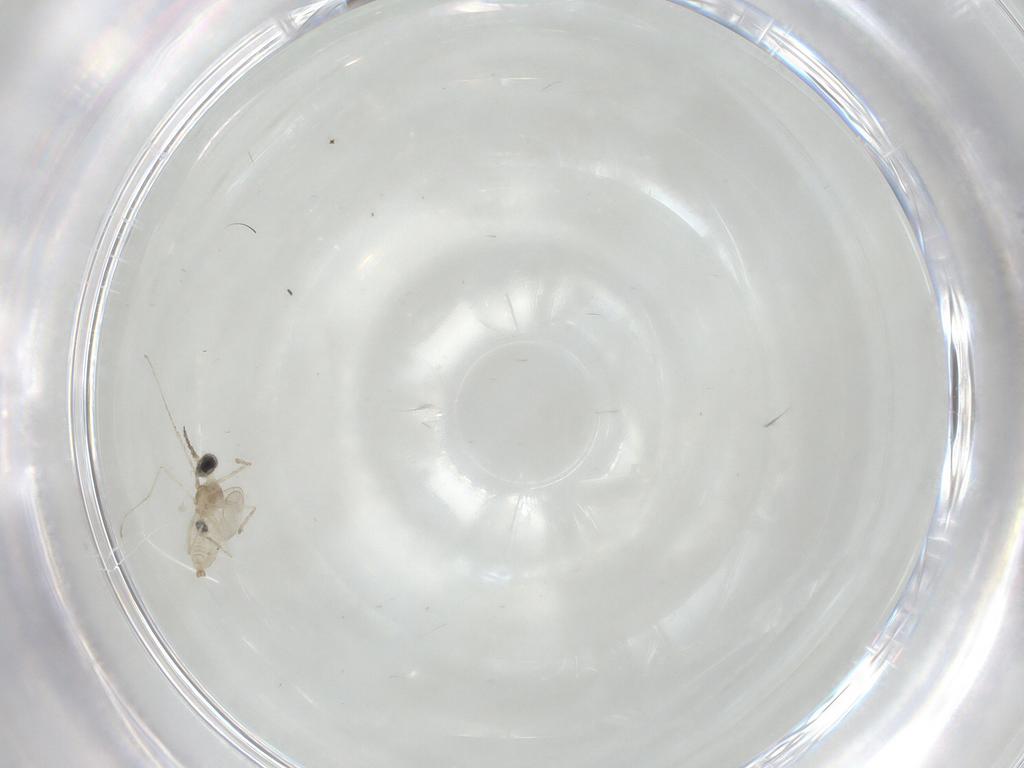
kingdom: Animalia
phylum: Arthropoda
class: Insecta
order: Diptera
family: Cecidomyiidae
